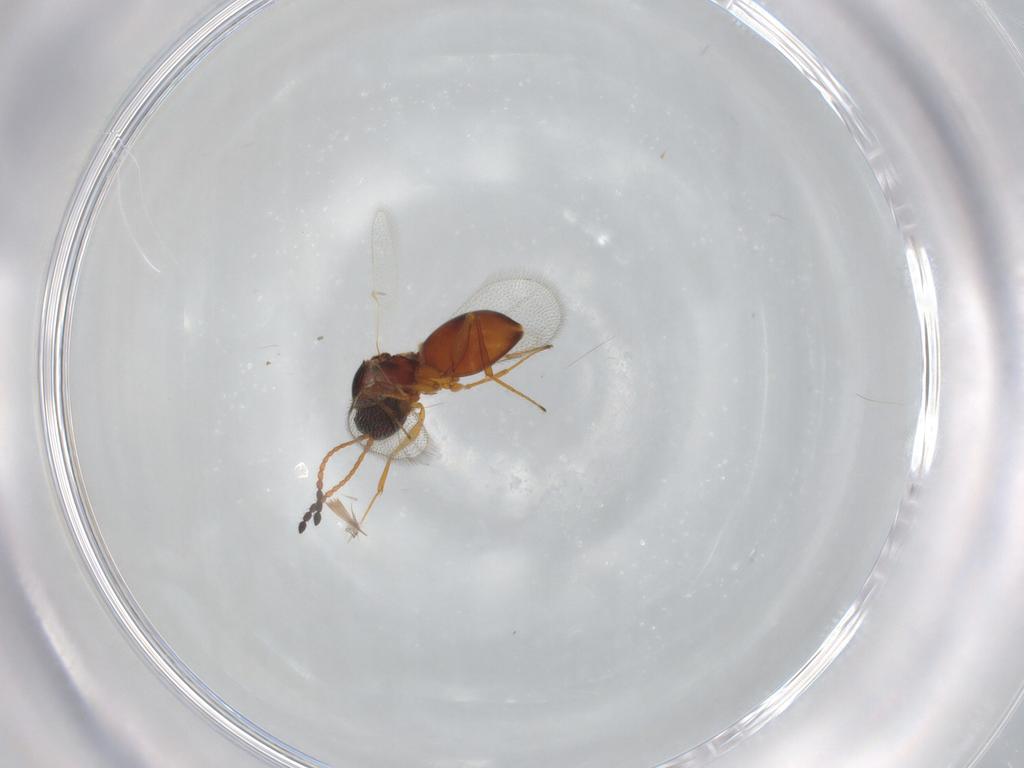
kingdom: Animalia
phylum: Arthropoda
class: Insecta
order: Hymenoptera
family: Figitidae
